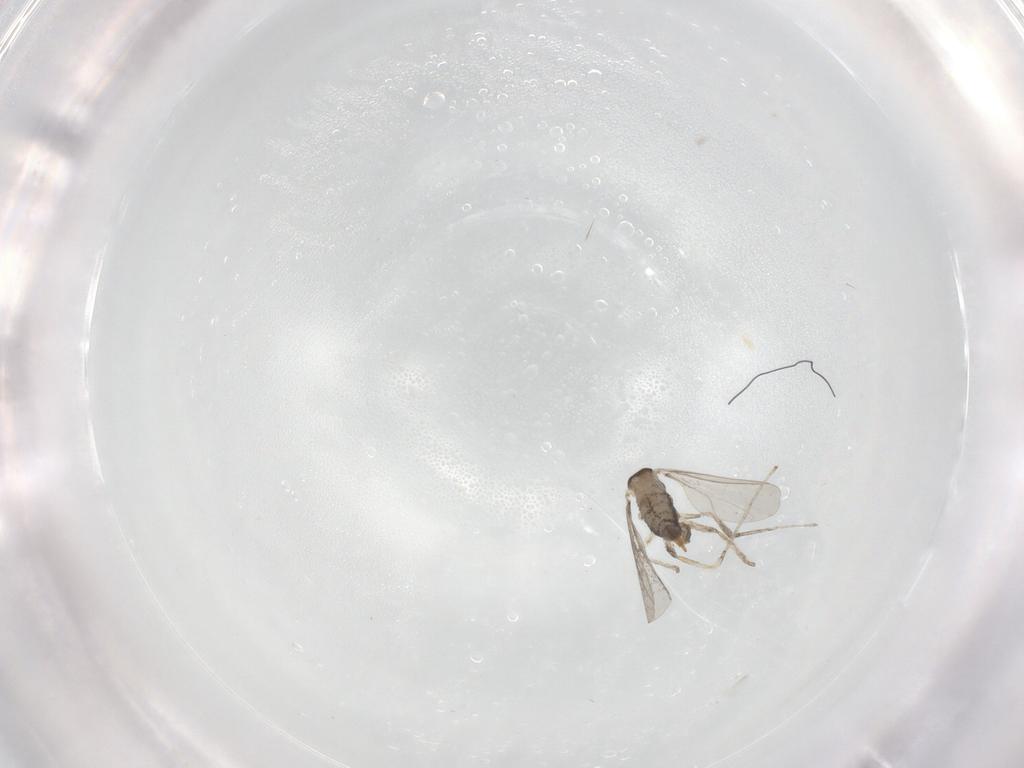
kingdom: Animalia
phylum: Arthropoda
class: Insecta
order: Diptera
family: Cecidomyiidae
